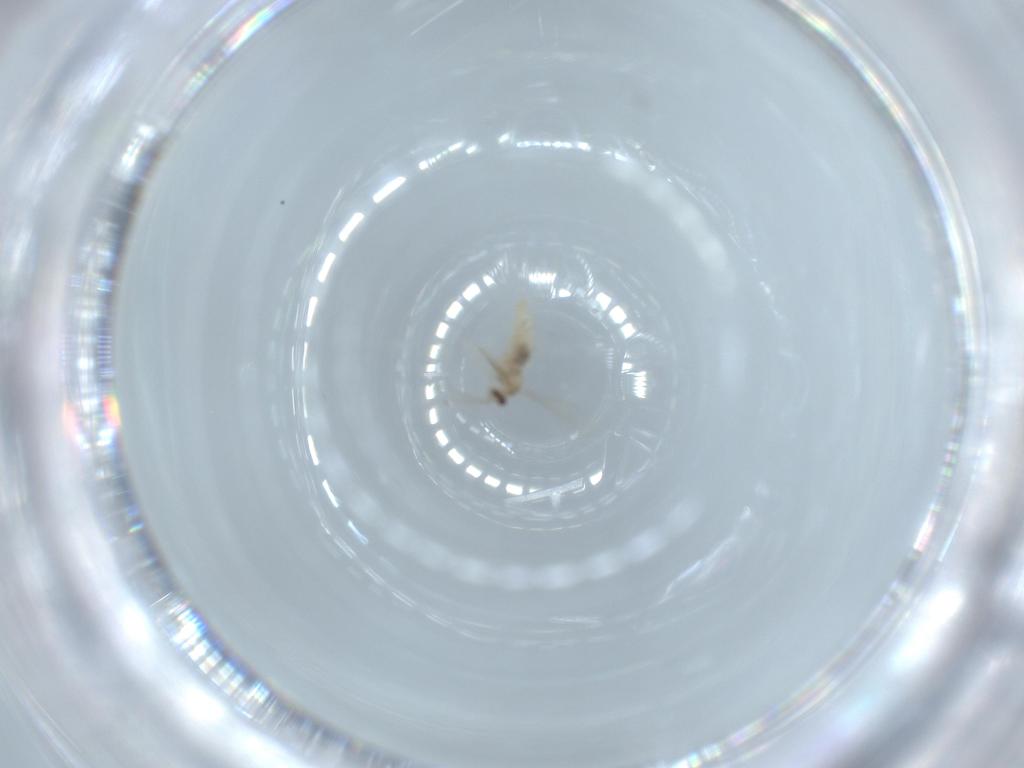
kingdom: Animalia
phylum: Arthropoda
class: Insecta
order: Diptera
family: Cecidomyiidae
